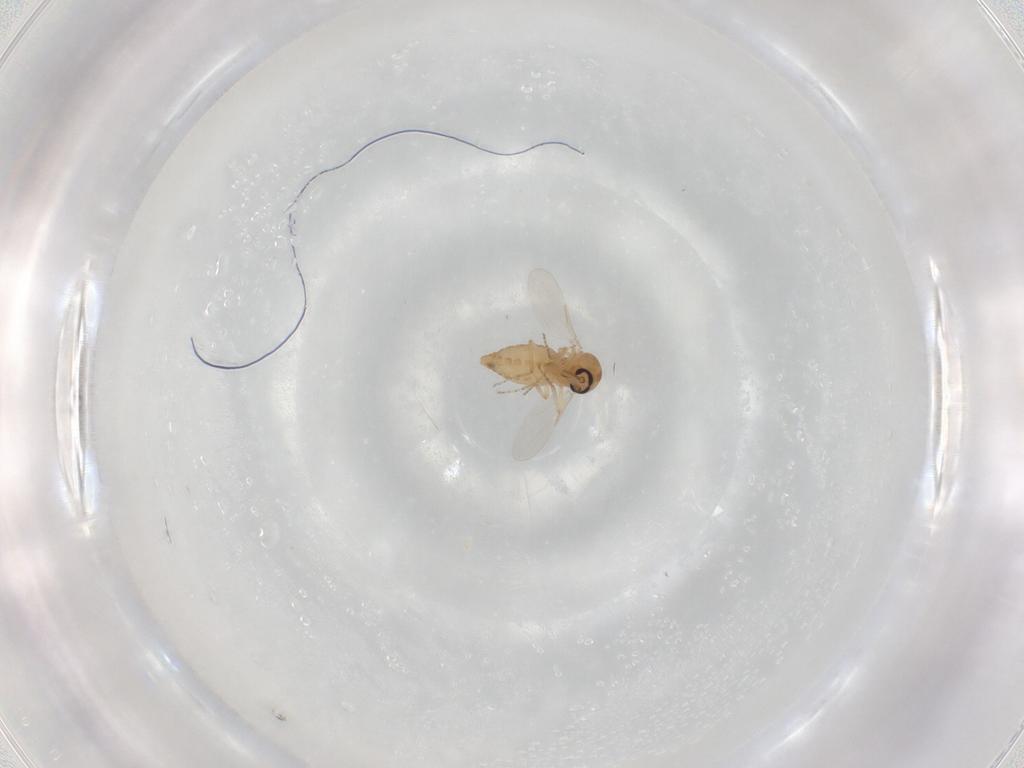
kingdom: Animalia
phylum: Arthropoda
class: Insecta
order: Diptera
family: Ceratopogonidae
